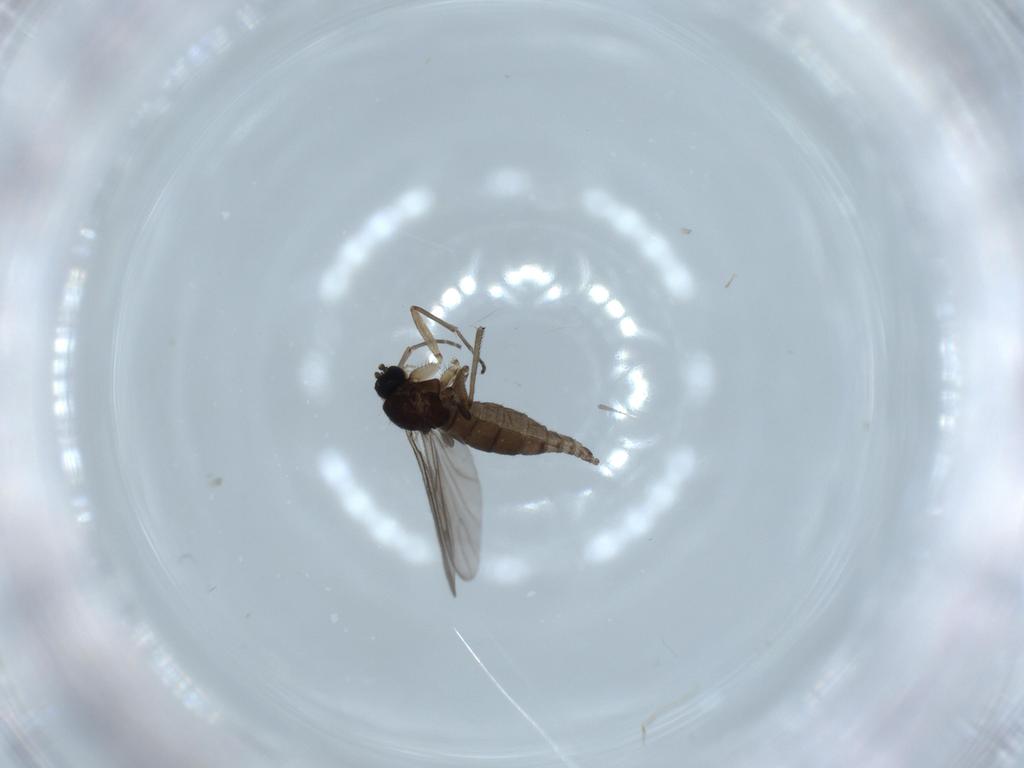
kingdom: Animalia
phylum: Arthropoda
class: Insecta
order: Diptera
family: Sciaridae
